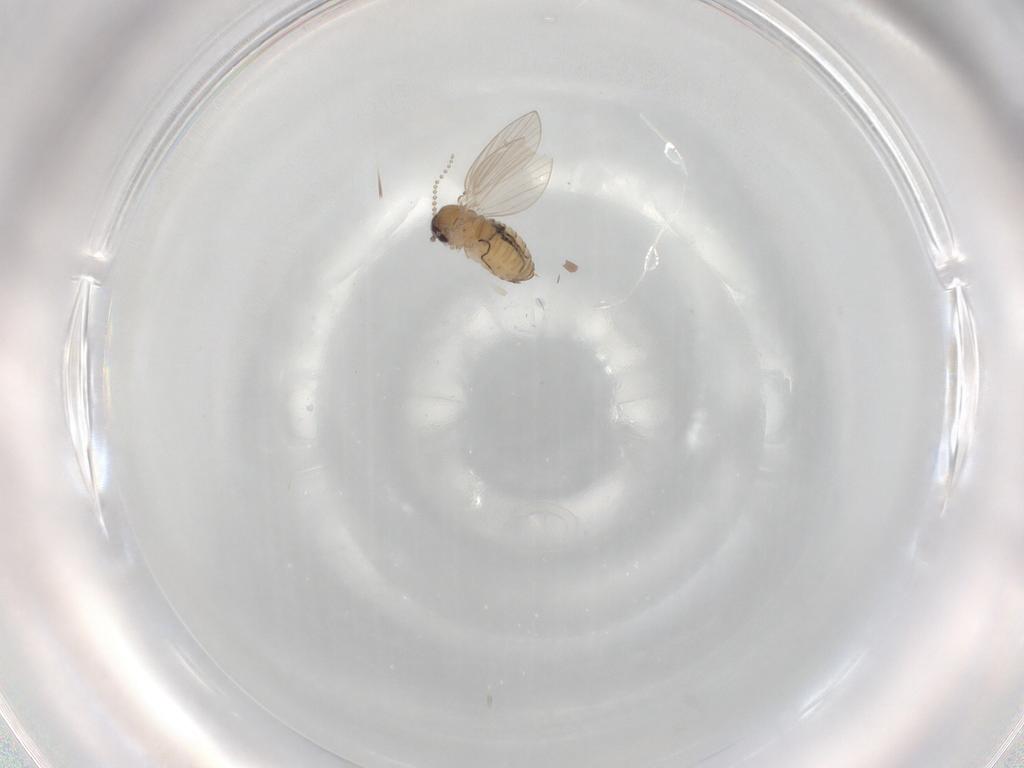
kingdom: Animalia
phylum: Arthropoda
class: Insecta
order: Diptera
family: Psychodidae
